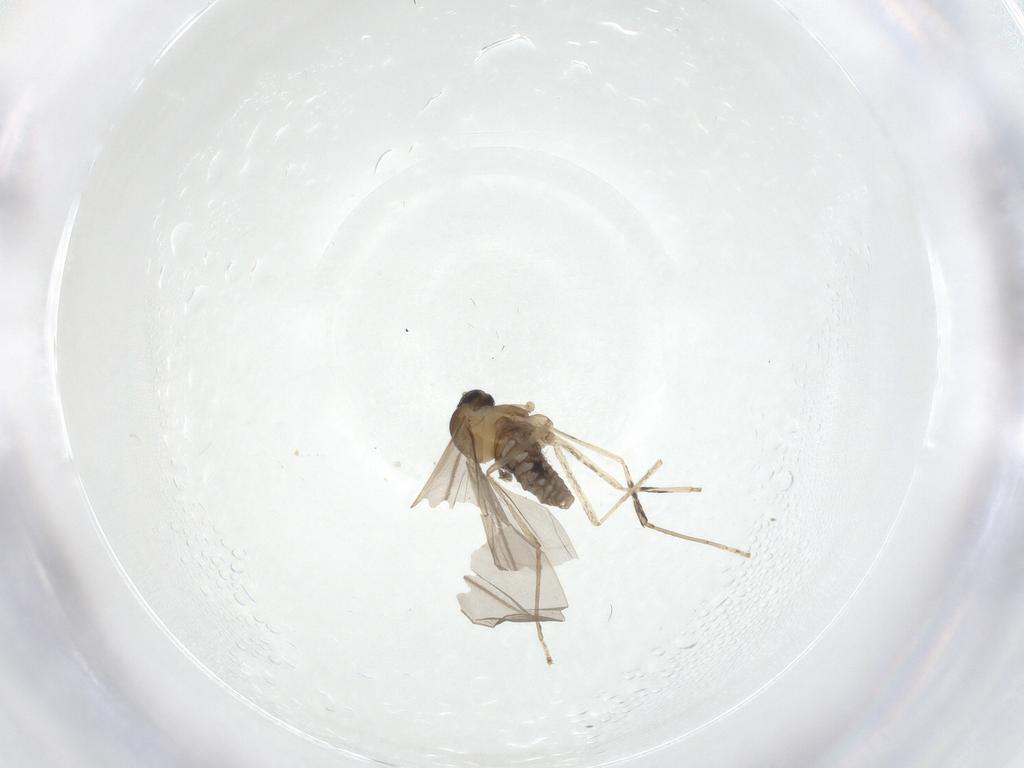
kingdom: Animalia
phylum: Arthropoda
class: Insecta
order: Diptera
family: Cecidomyiidae
